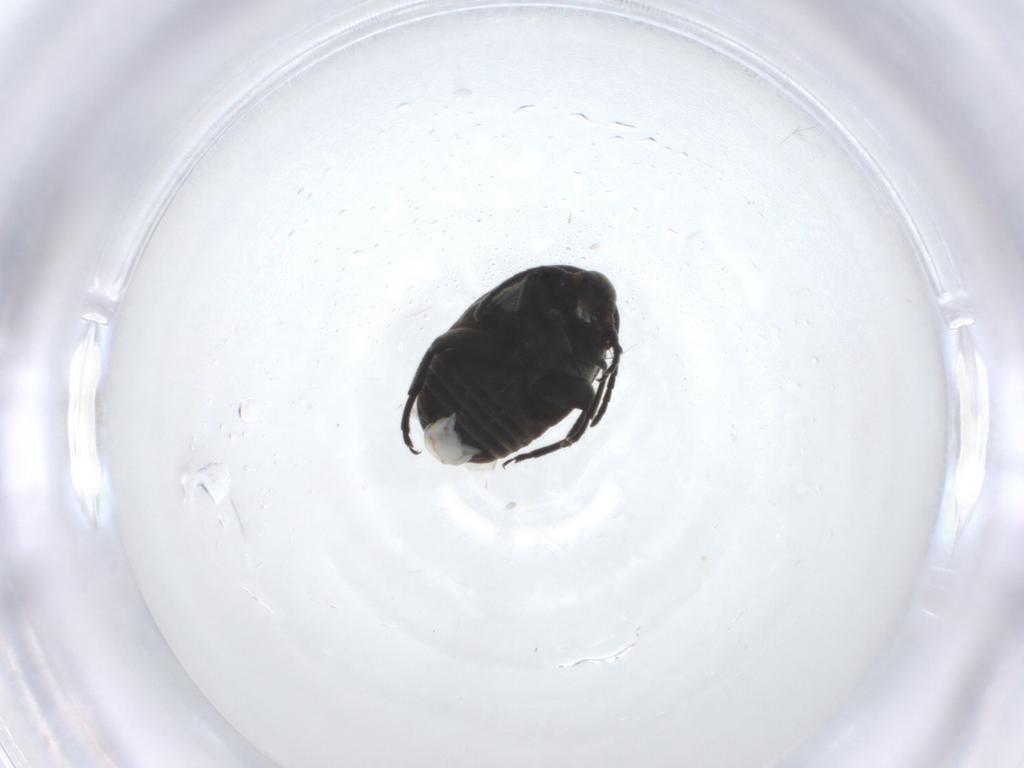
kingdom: Animalia
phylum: Arthropoda
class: Insecta
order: Coleoptera
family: Chrysomelidae
